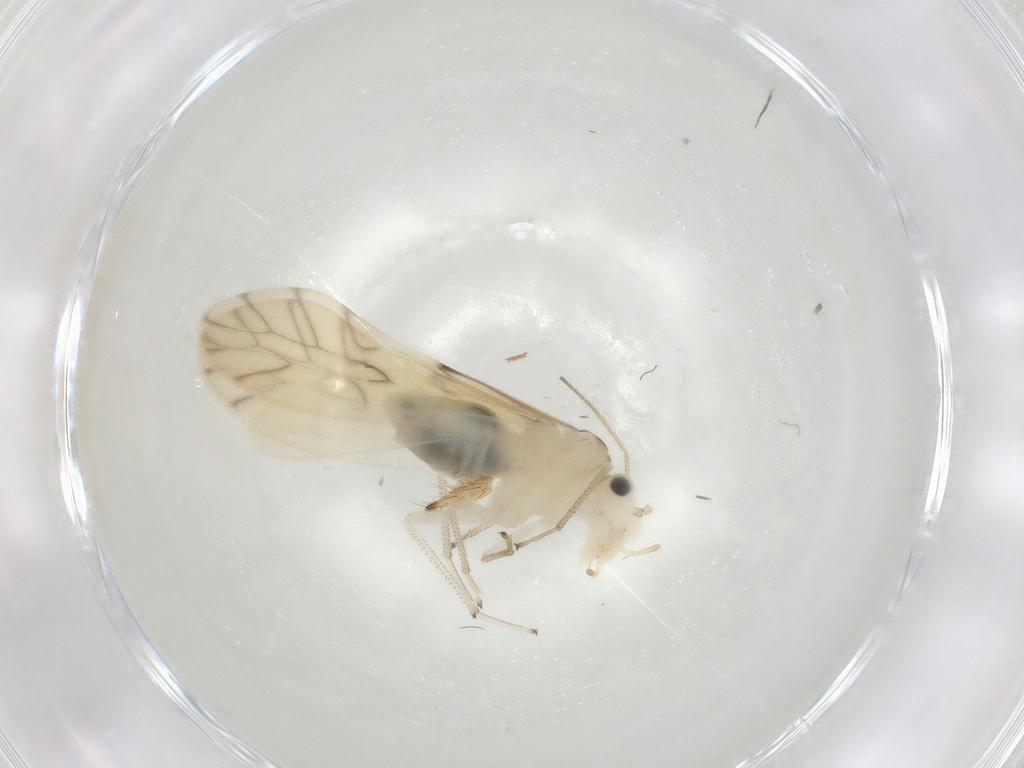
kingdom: Animalia
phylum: Arthropoda
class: Insecta
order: Psocodea
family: Caeciliusidae
